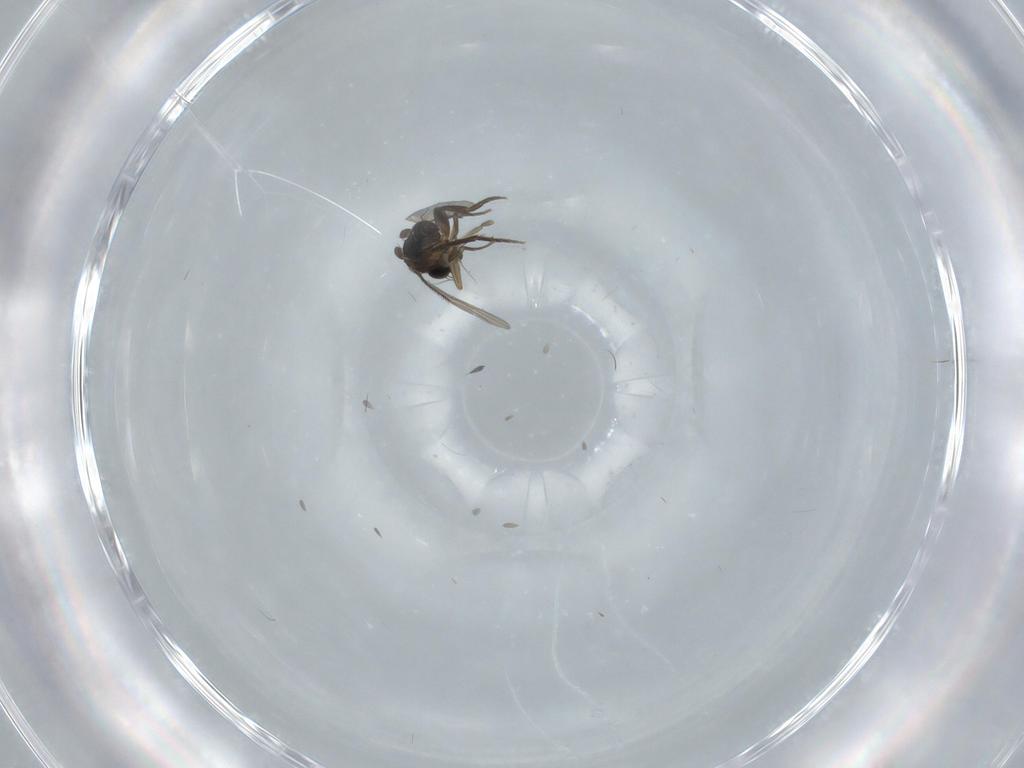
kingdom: Animalia
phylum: Arthropoda
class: Insecta
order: Diptera
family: Phoridae
